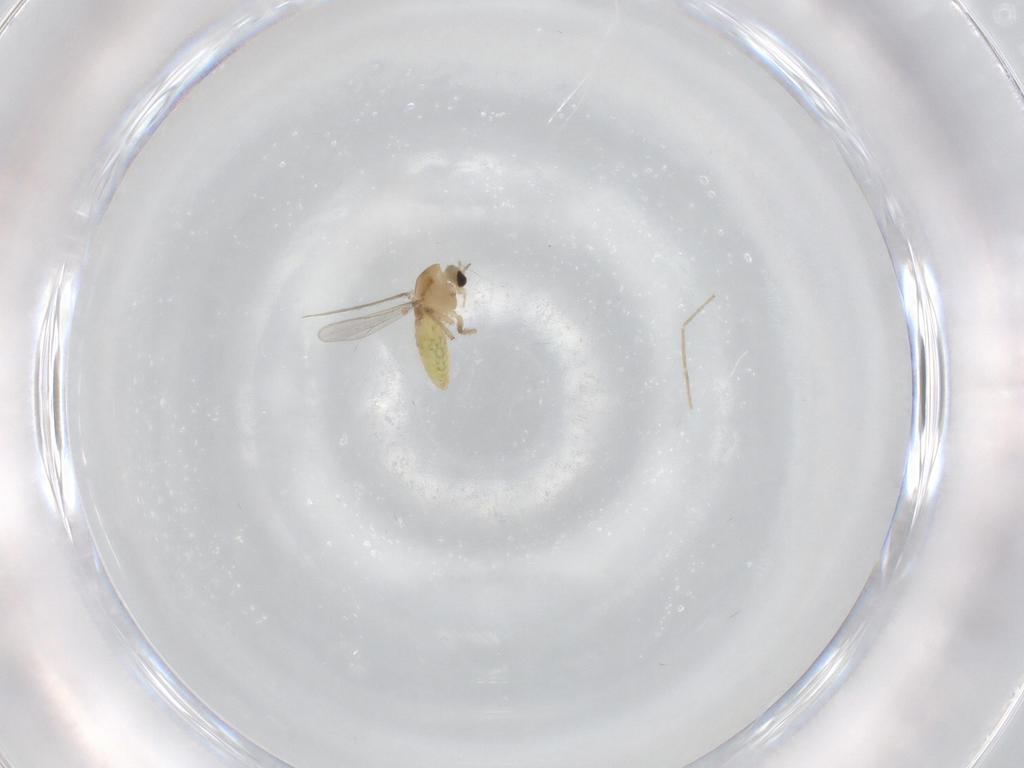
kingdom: Animalia
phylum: Arthropoda
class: Insecta
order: Diptera
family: Chironomidae
